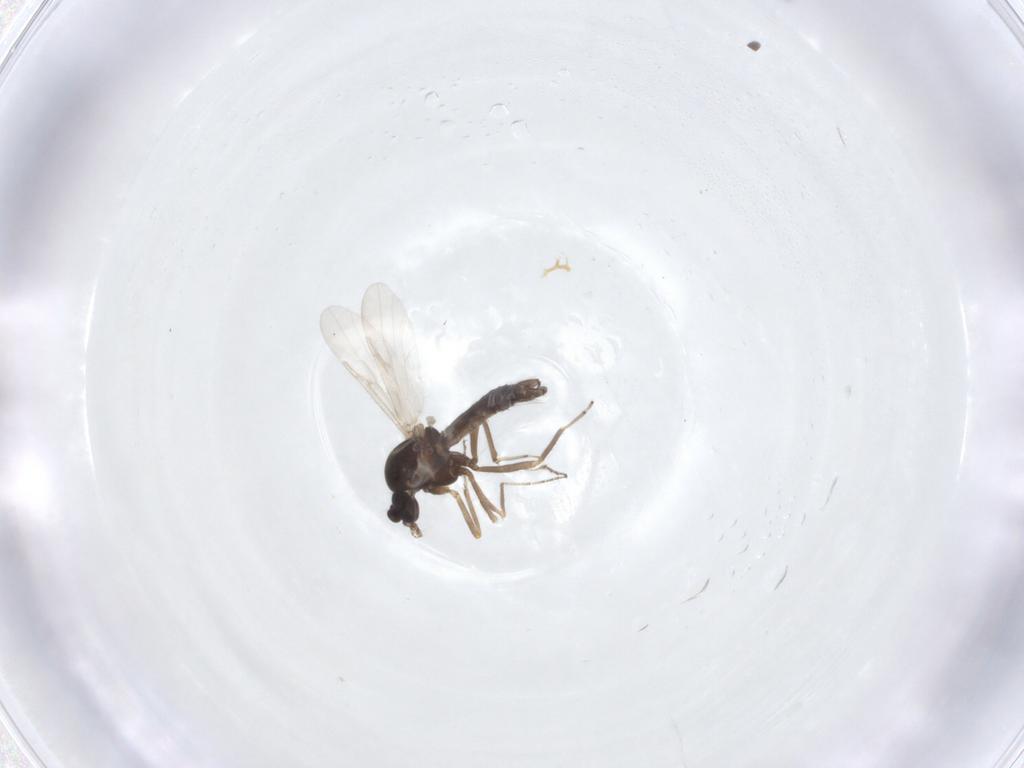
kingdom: Animalia
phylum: Arthropoda
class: Insecta
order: Diptera
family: Ceratopogonidae
